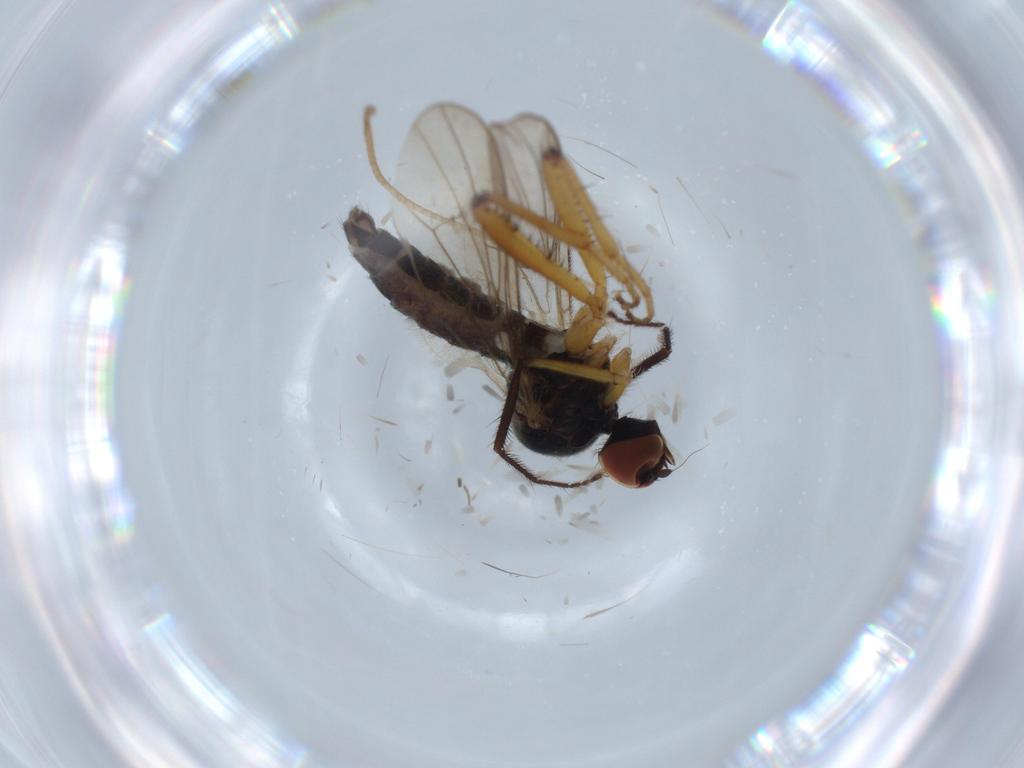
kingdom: Animalia
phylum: Arthropoda
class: Insecta
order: Diptera
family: Hybotidae
